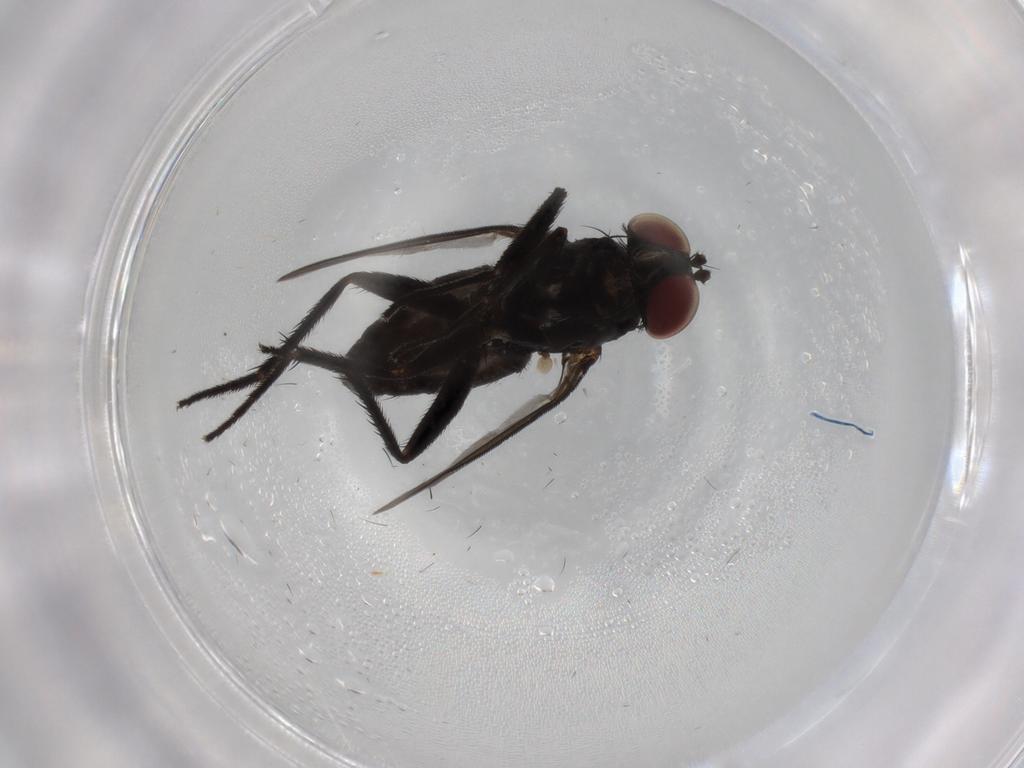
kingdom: Animalia
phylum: Arthropoda
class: Insecta
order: Diptera
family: Dolichopodidae
